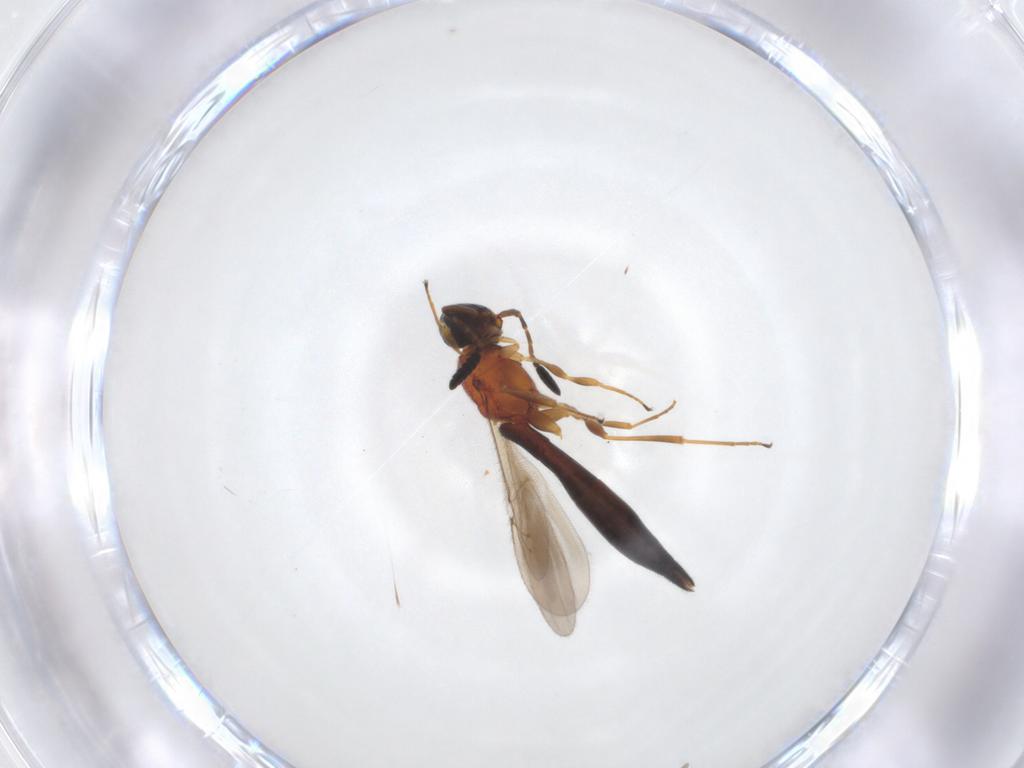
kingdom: Animalia
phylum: Arthropoda
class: Insecta
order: Hymenoptera
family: Scelionidae
